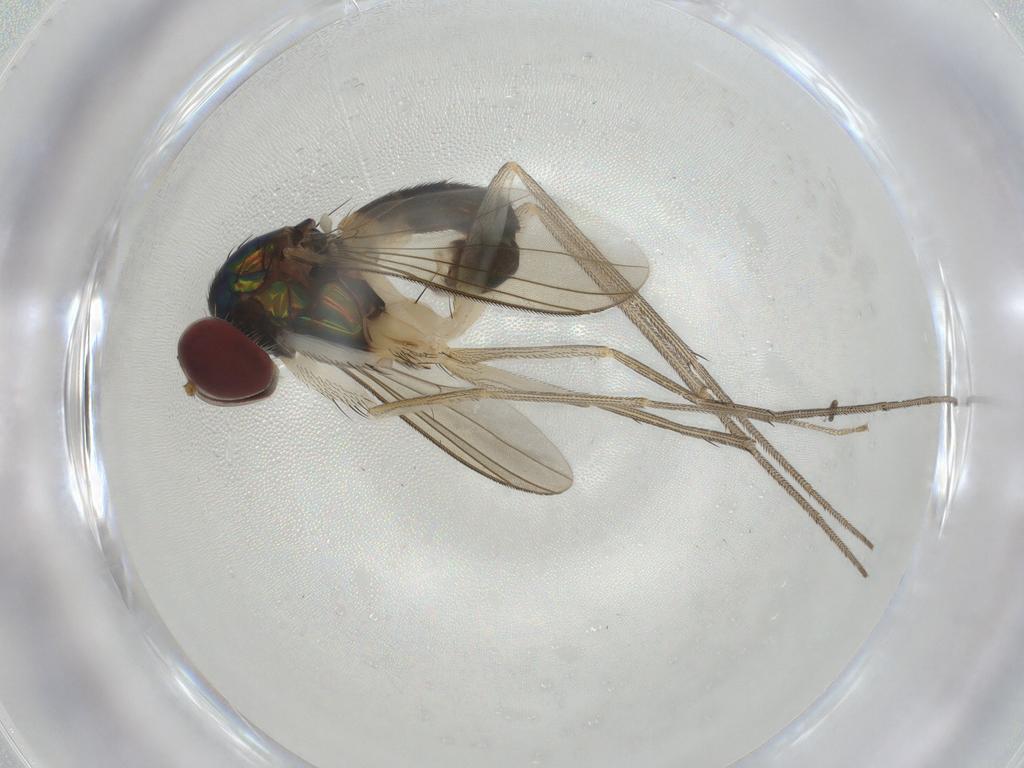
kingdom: Animalia
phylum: Arthropoda
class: Insecta
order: Diptera
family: Dolichopodidae
